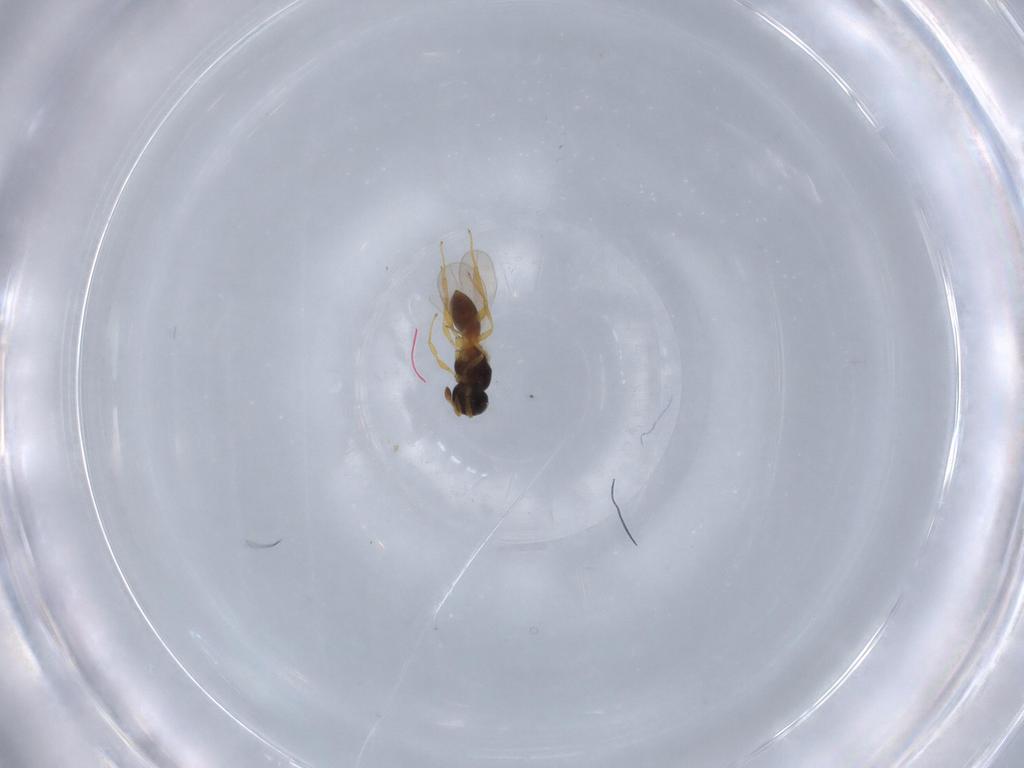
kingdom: Animalia
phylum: Arthropoda
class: Insecta
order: Hymenoptera
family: Platygastridae
